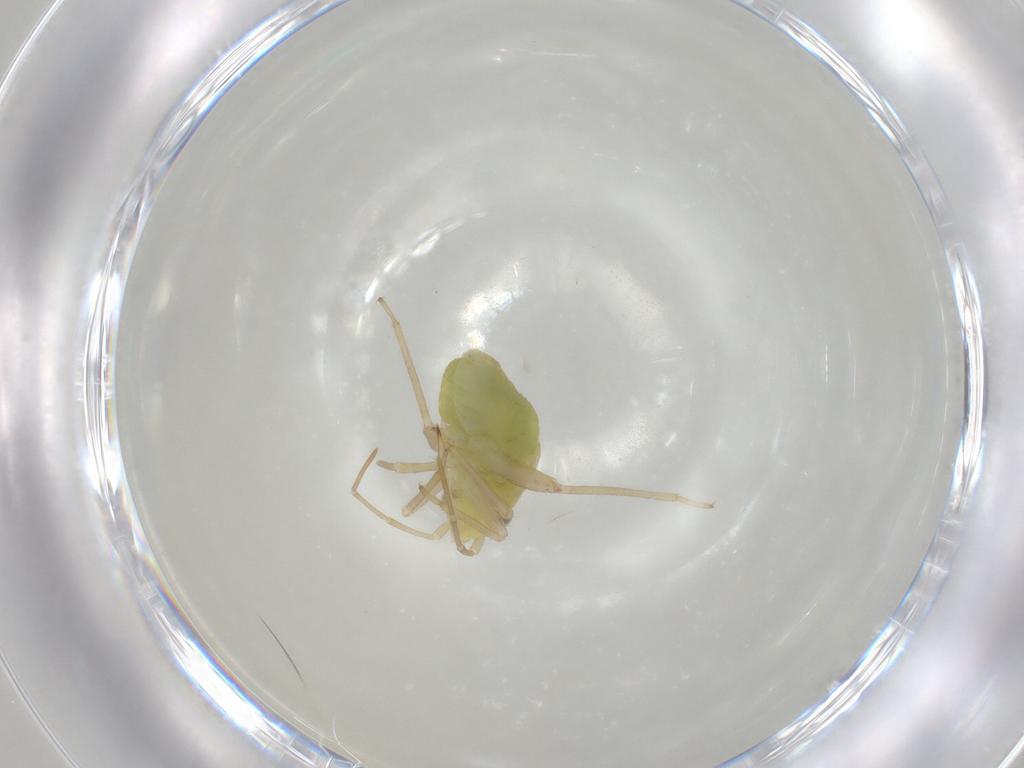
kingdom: Animalia
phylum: Arthropoda
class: Insecta
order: Hemiptera
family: Miridae
